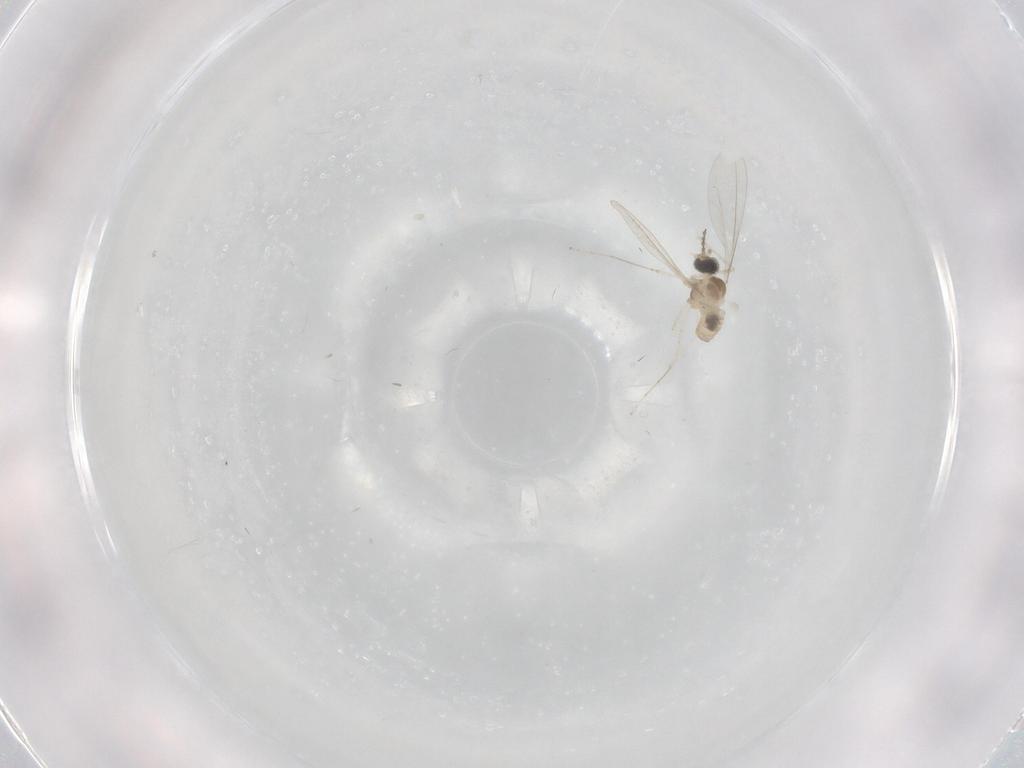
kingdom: Animalia
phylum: Arthropoda
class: Insecta
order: Diptera
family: Cecidomyiidae
